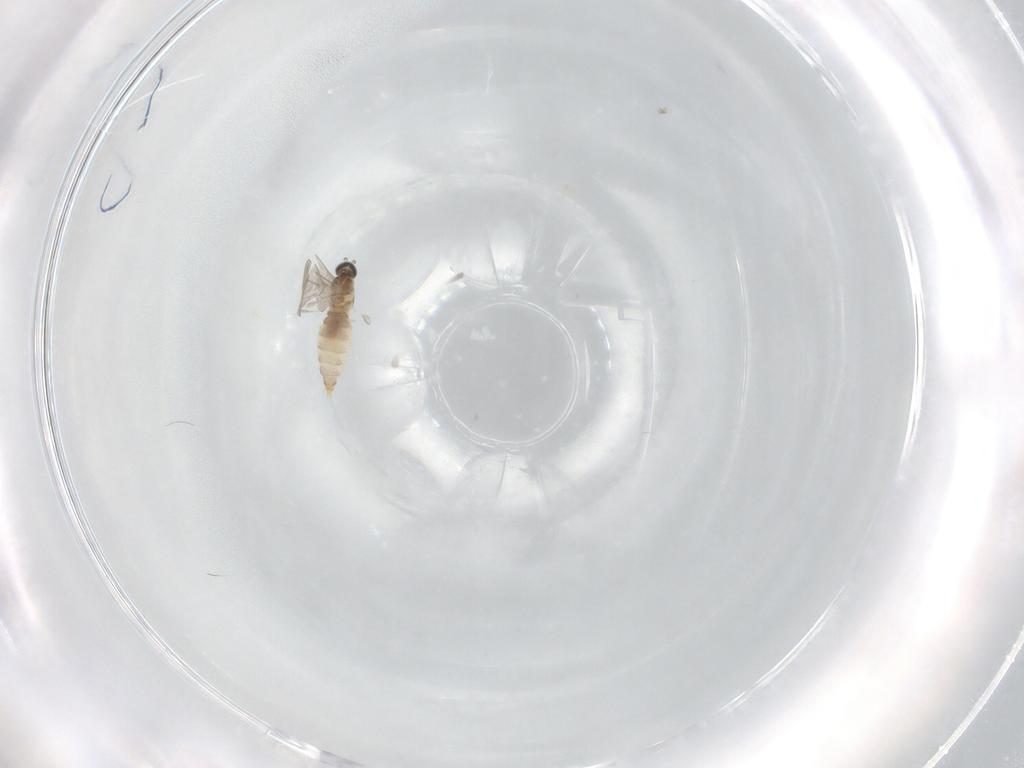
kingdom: Animalia
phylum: Arthropoda
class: Insecta
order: Diptera
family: Cecidomyiidae
